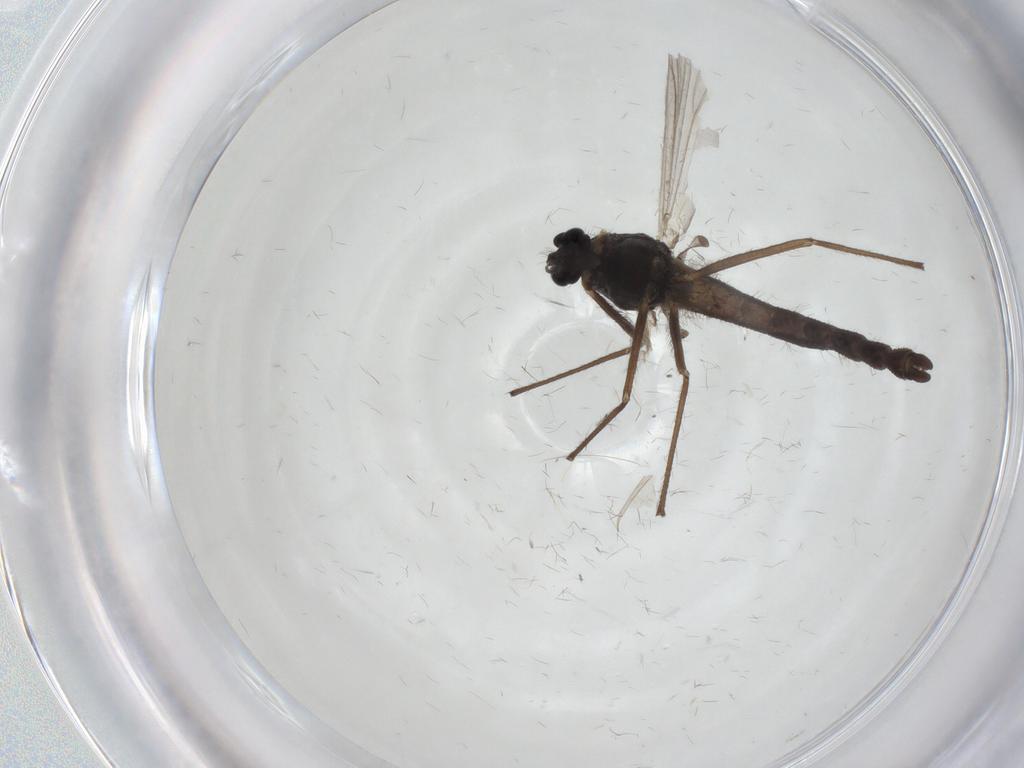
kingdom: Animalia
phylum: Arthropoda
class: Insecta
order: Diptera
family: Chironomidae
